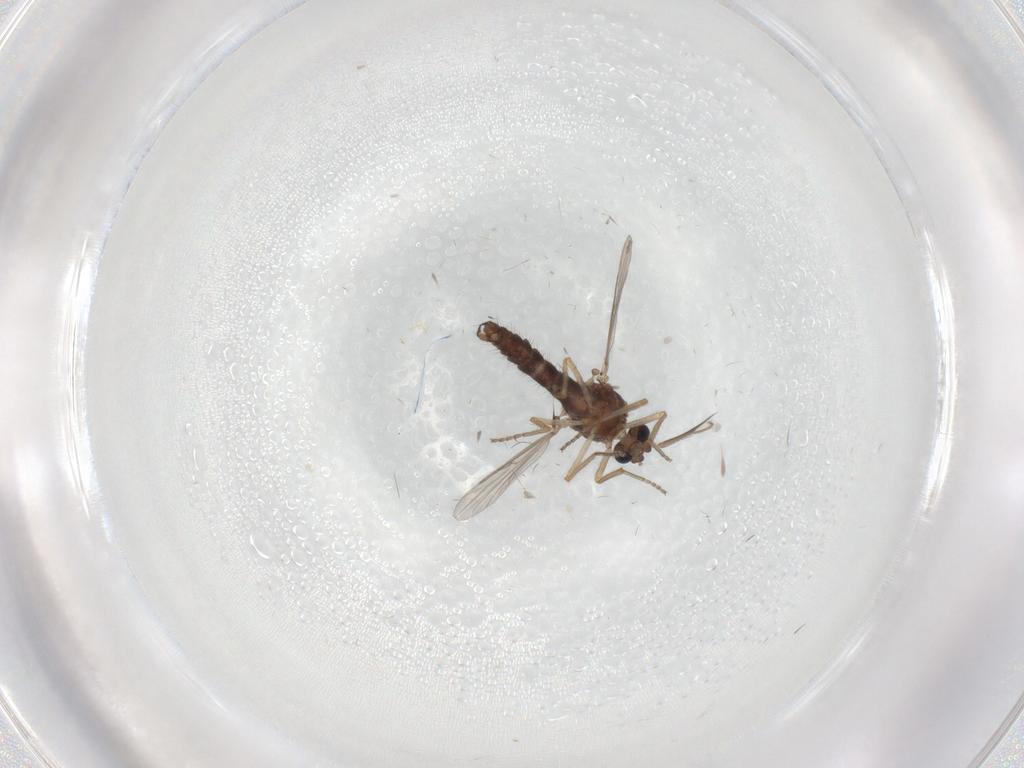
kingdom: Animalia
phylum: Arthropoda
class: Insecta
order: Diptera
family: Ceratopogonidae
